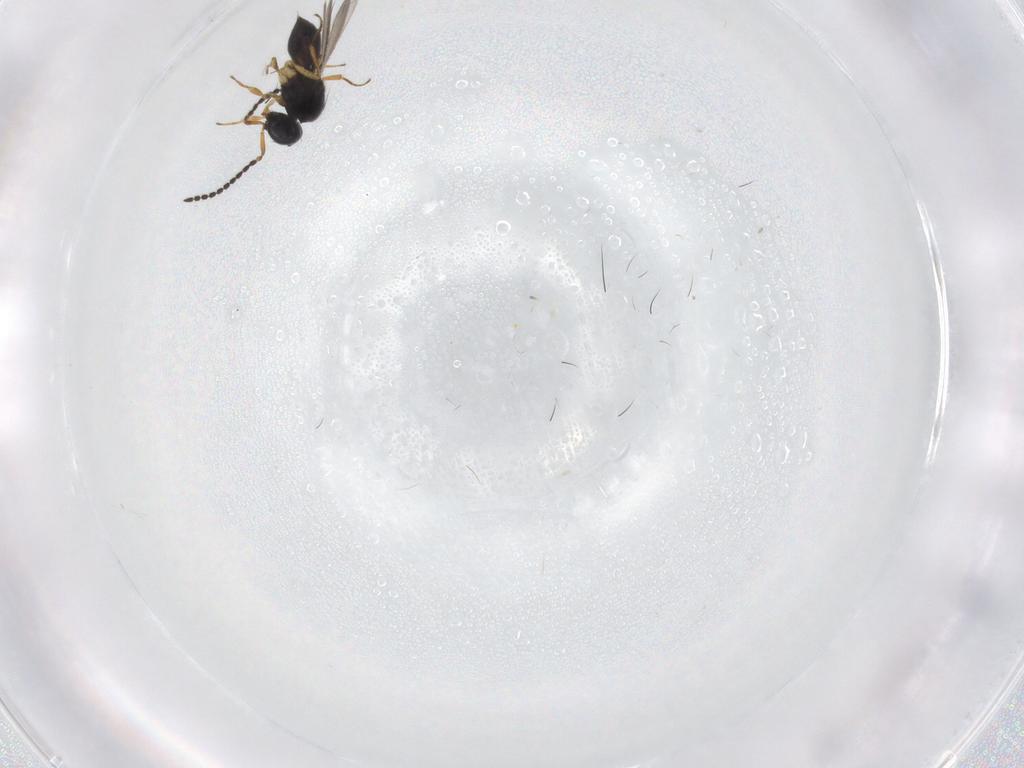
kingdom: Animalia
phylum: Arthropoda
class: Insecta
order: Hymenoptera
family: Scelionidae
